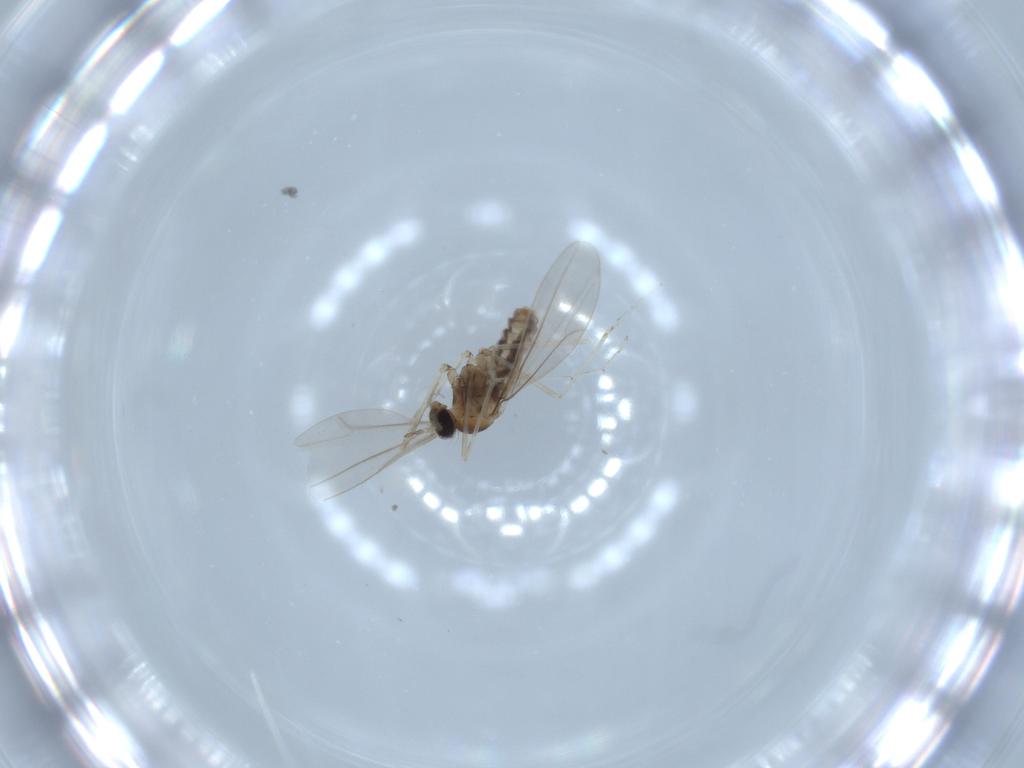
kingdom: Animalia
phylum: Arthropoda
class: Insecta
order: Diptera
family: Cecidomyiidae
